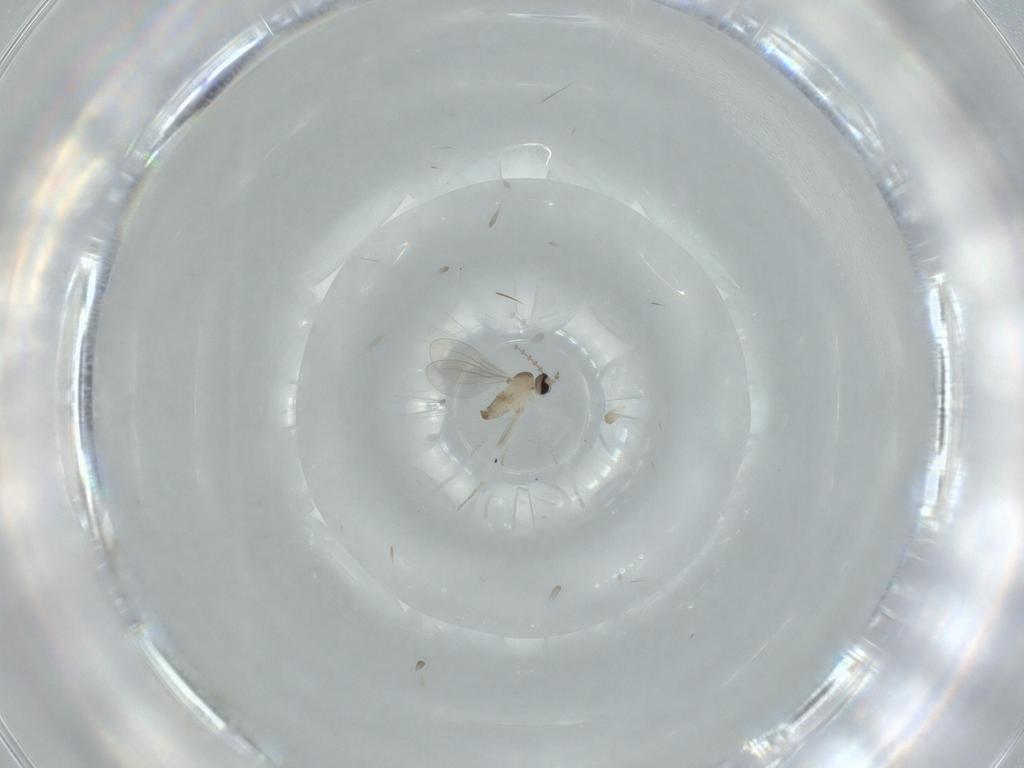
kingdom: Animalia
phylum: Arthropoda
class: Insecta
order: Diptera
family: Cecidomyiidae
